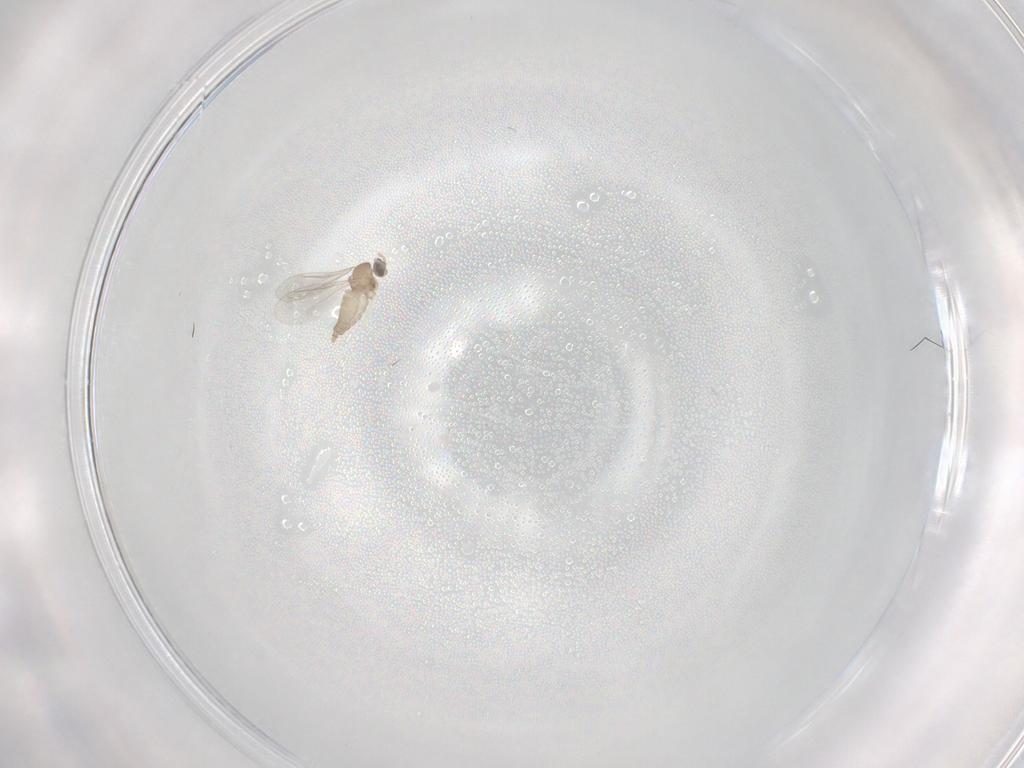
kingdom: Animalia
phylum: Arthropoda
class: Insecta
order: Diptera
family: Cecidomyiidae
